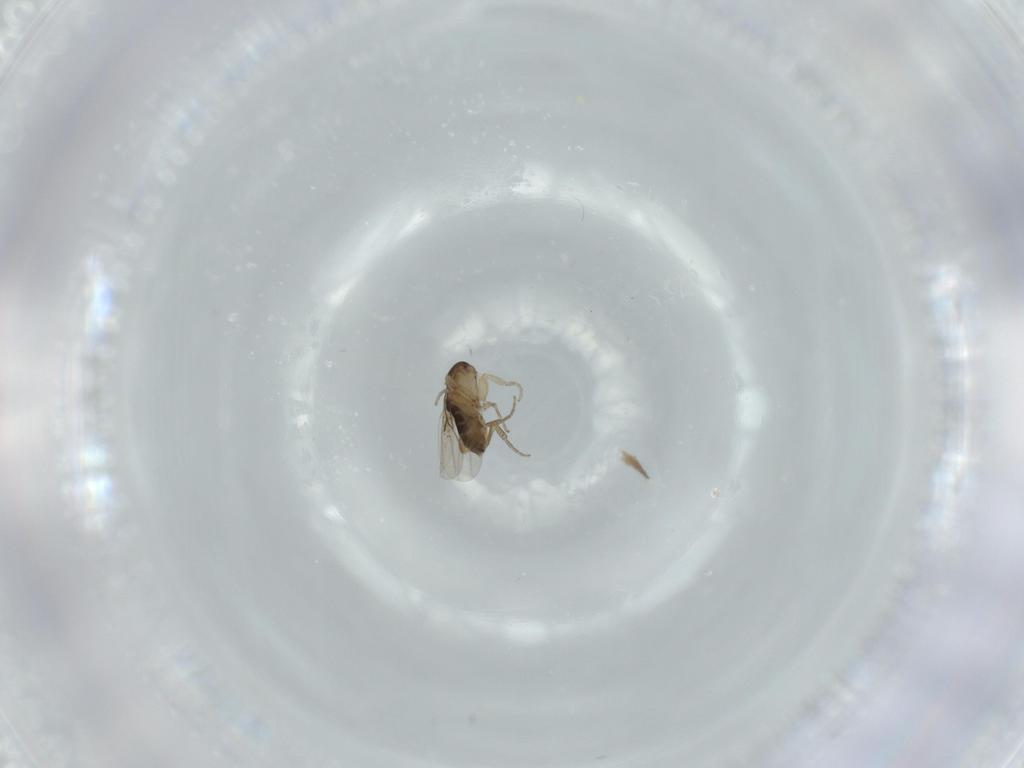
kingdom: Animalia
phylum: Arthropoda
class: Insecta
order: Diptera
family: Phoridae
